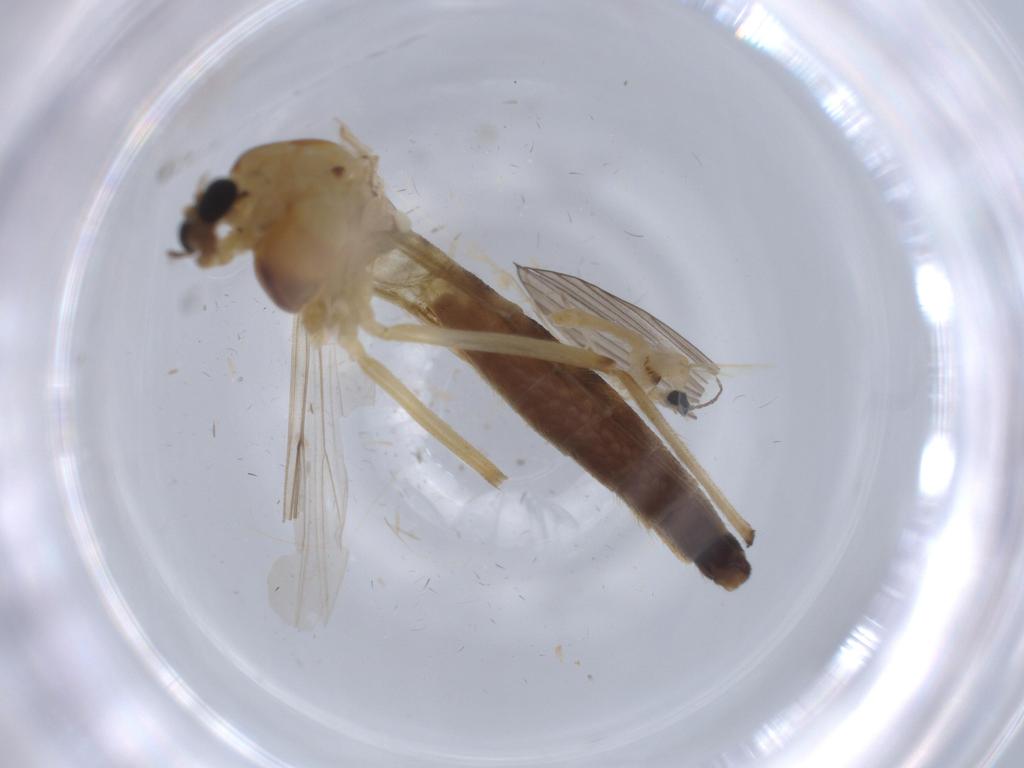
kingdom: Animalia
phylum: Arthropoda
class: Insecta
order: Diptera
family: Chironomidae
